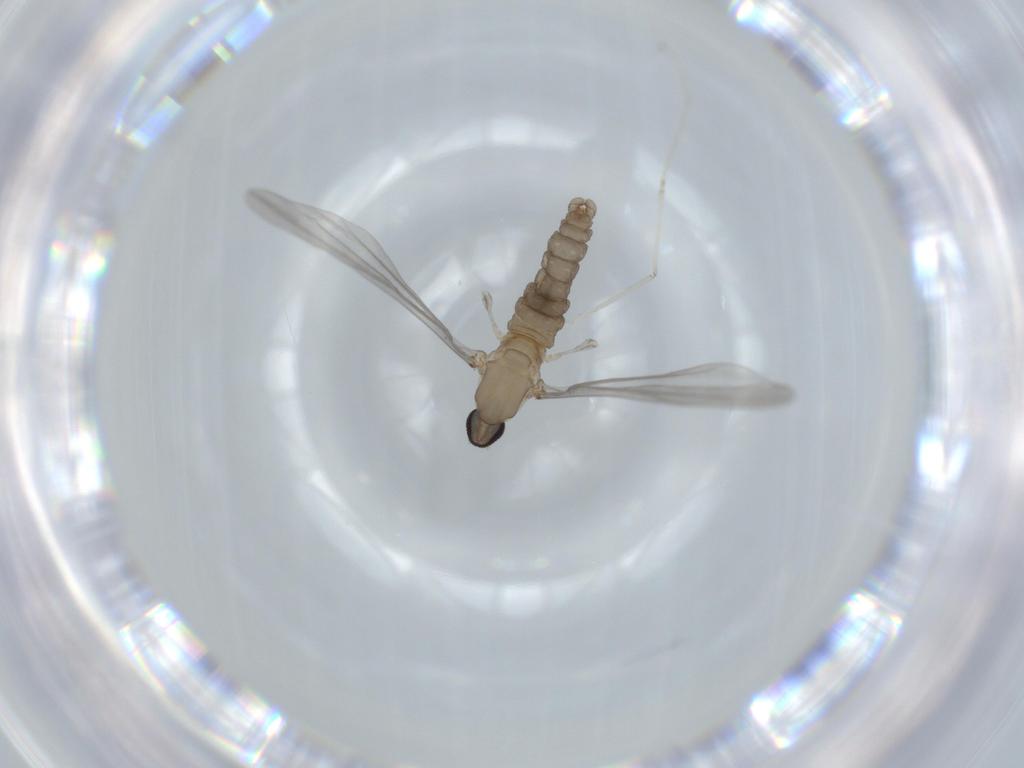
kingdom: Animalia
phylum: Arthropoda
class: Insecta
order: Diptera
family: Cecidomyiidae
